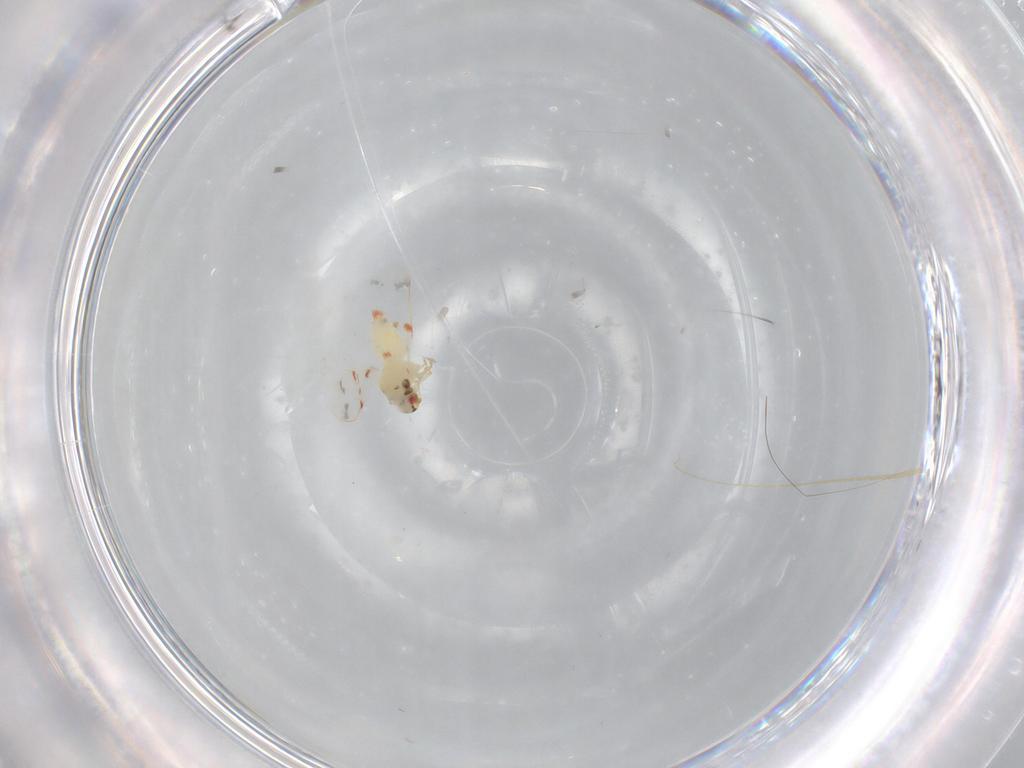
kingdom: Animalia
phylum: Arthropoda
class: Insecta
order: Hemiptera
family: Aleyrodidae
